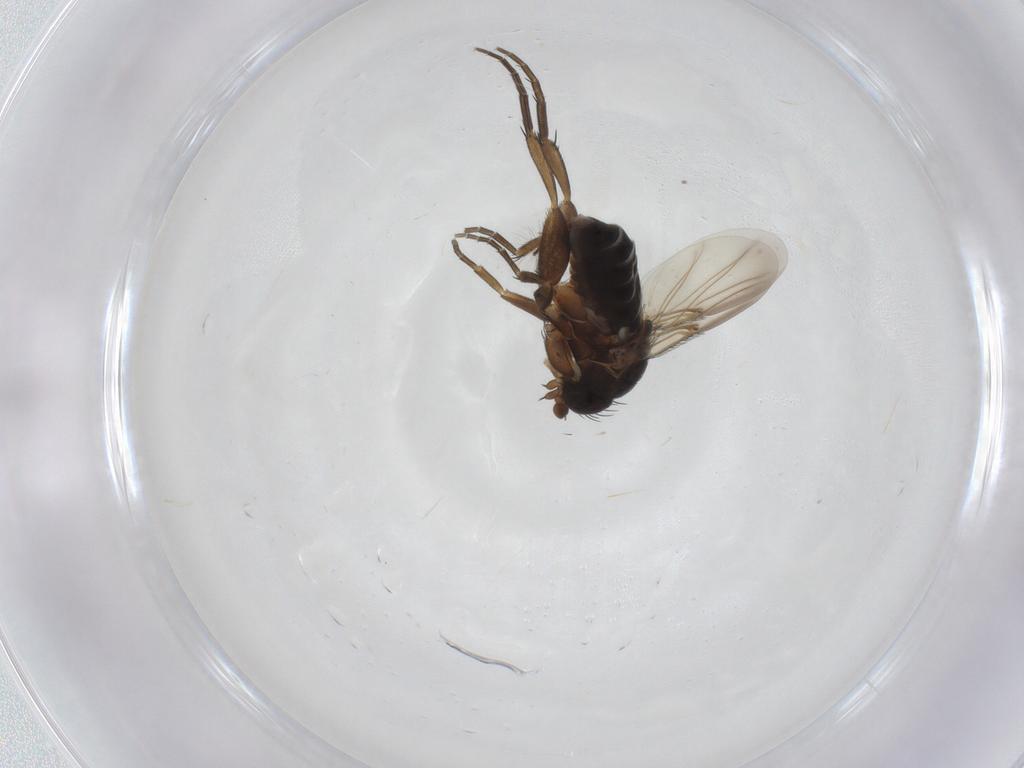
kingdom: Animalia
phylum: Arthropoda
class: Insecta
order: Diptera
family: Phoridae
